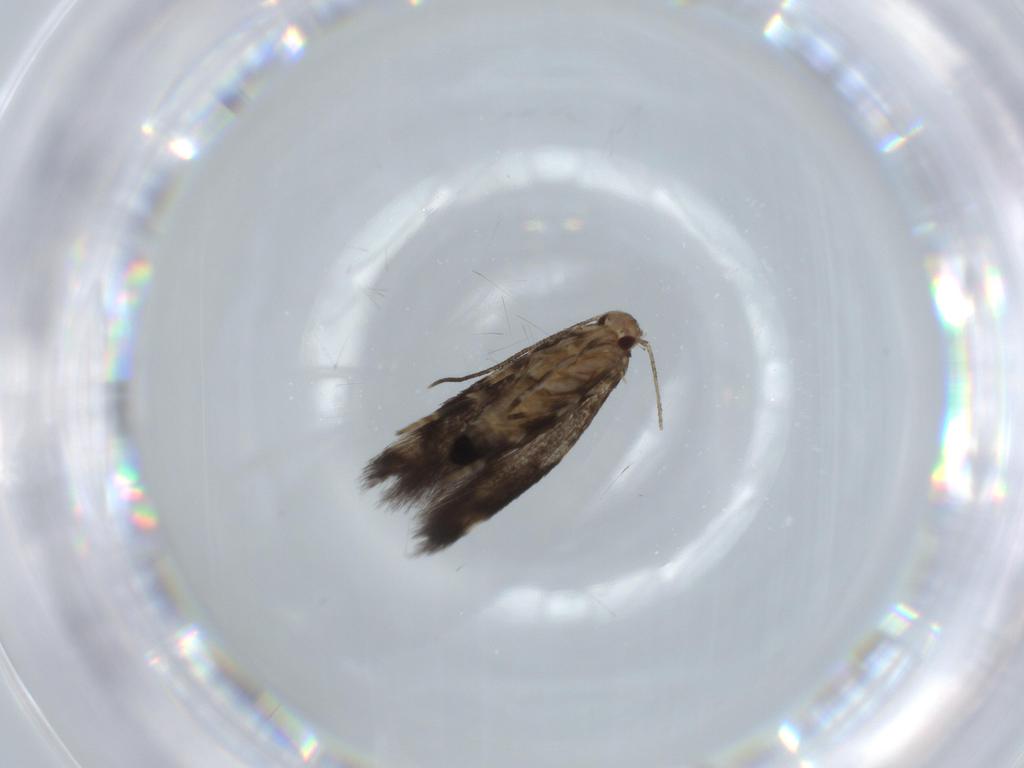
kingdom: Animalia
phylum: Arthropoda
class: Insecta
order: Lepidoptera
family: Cosmopterigidae
